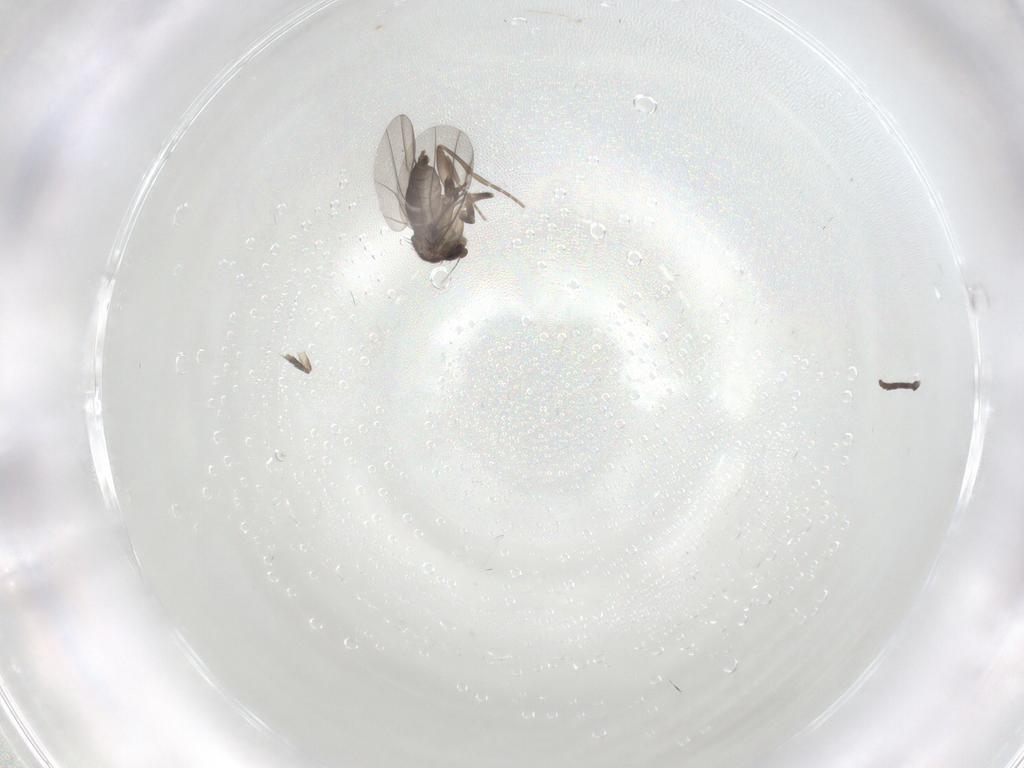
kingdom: Animalia
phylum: Arthropoda
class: Insecta
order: Diptera
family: Phoridae
